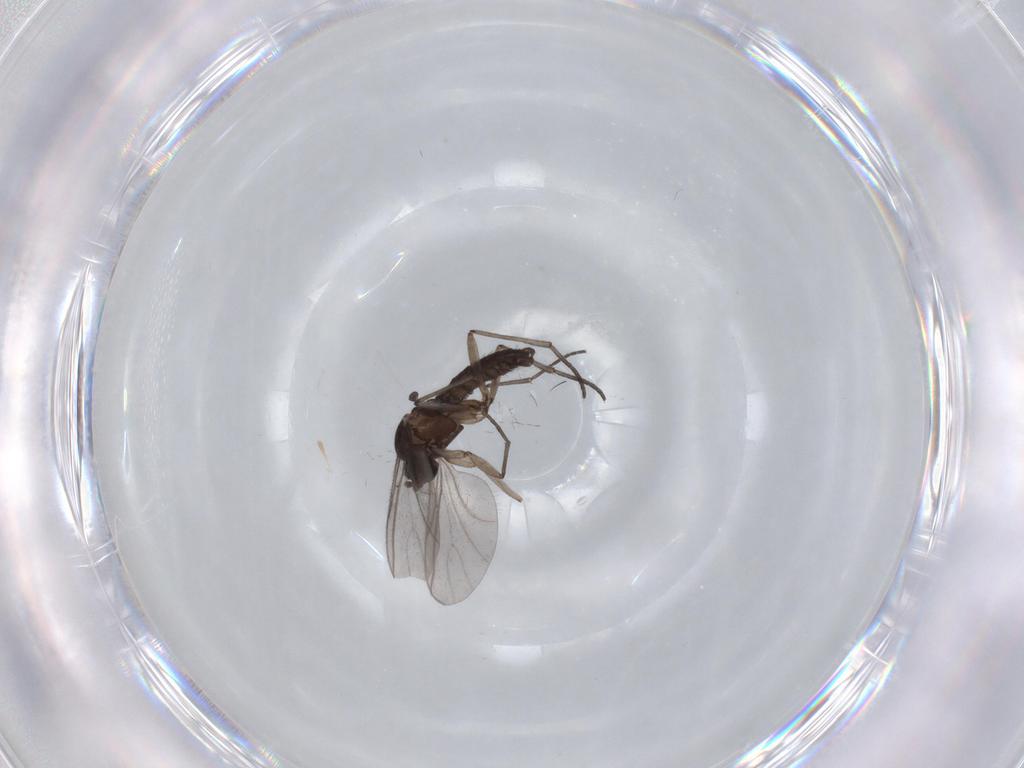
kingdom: Animalia
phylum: Arthropoda
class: Insecta
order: Diptera
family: Tipulidae
